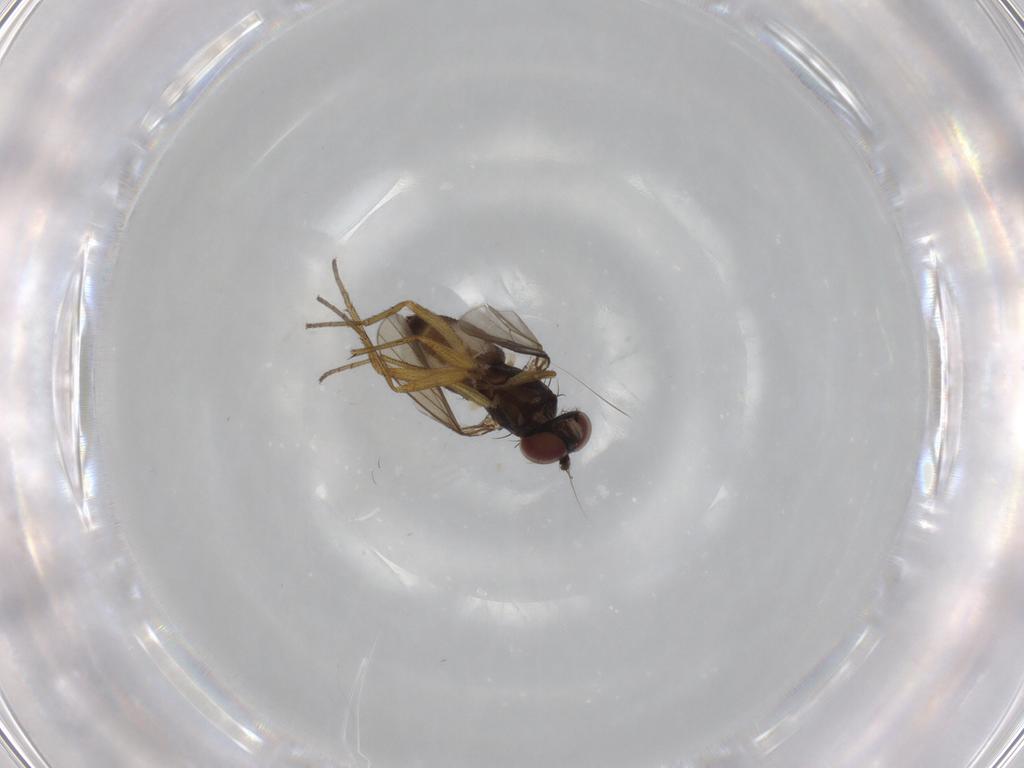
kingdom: Animalia
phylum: Arthropoda
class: Insecta
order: Diptera
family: Dolichopodidae
